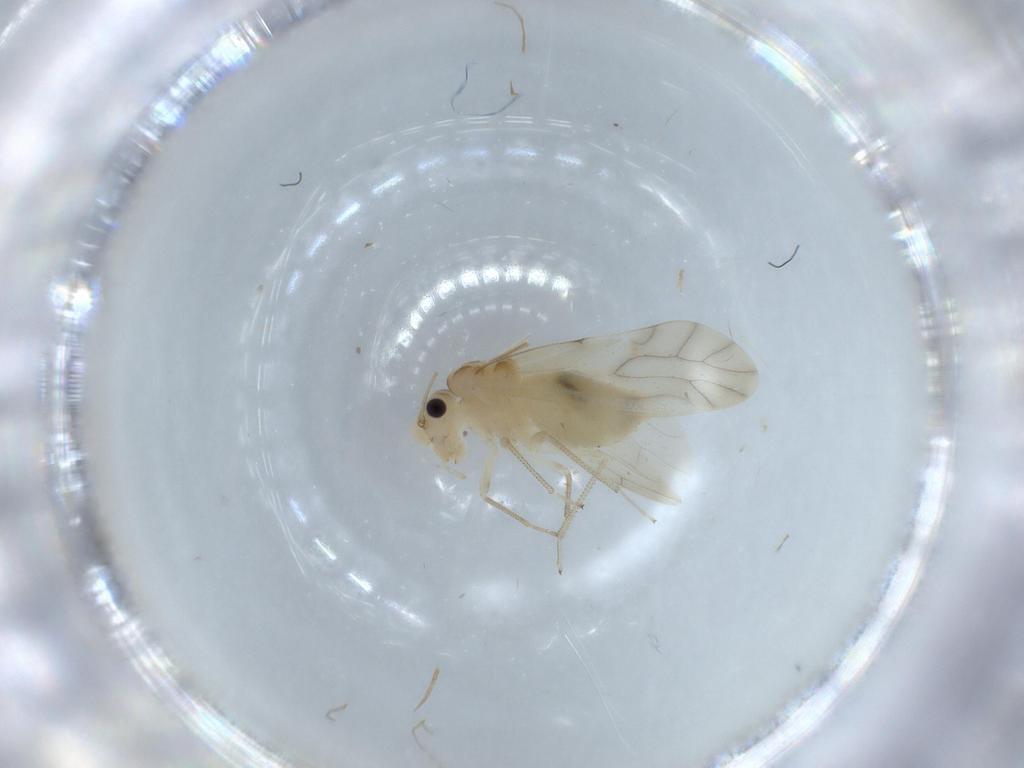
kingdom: Animalia
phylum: Arthropoda
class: Insecta
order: Psocodea
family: Caeciliusidae
